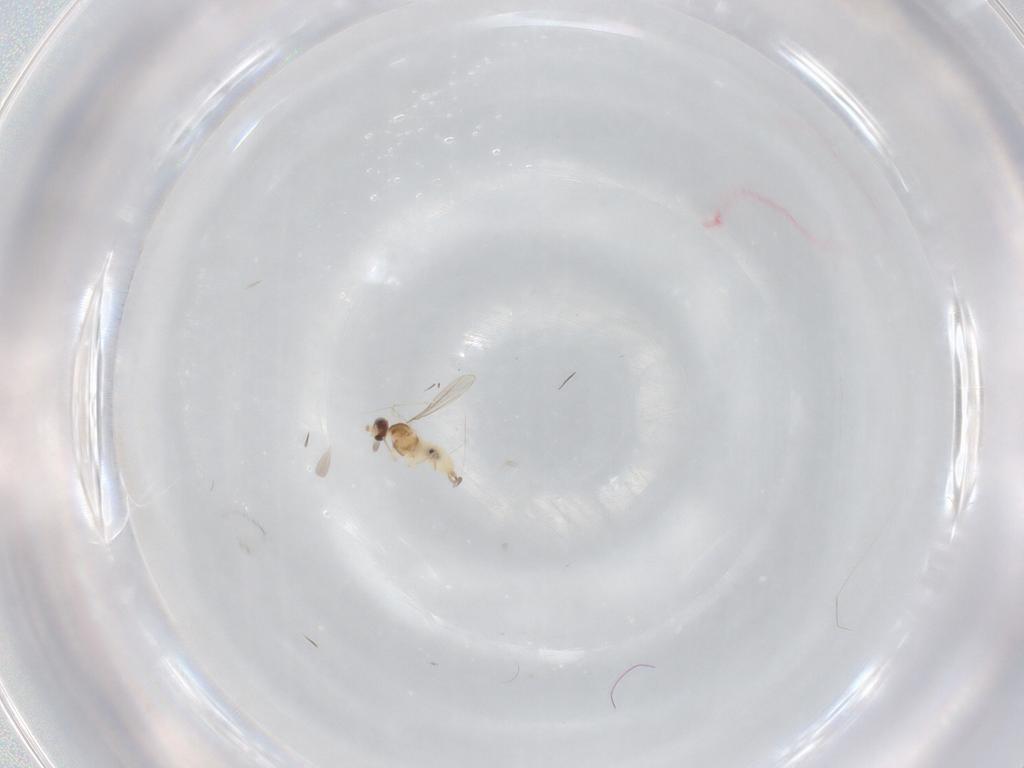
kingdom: Animalia
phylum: Arthropoda
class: Insecta
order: Diptera
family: Cecidomyiidae
